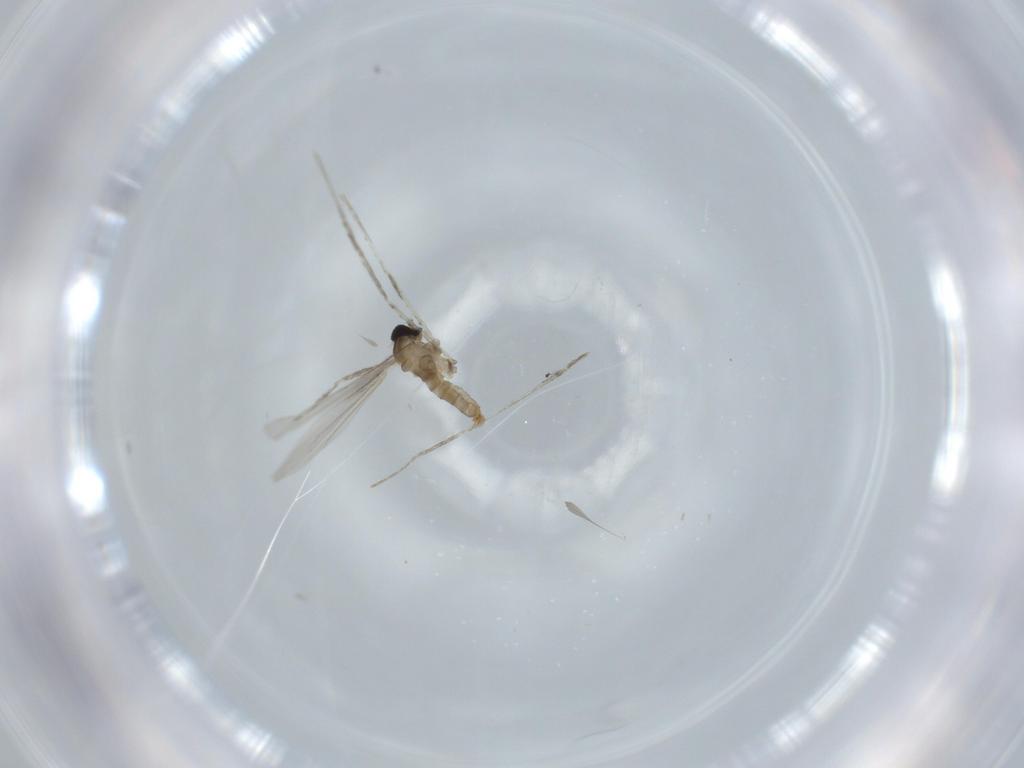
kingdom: Animalia
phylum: Arthropoda
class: Insecta
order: Diptera
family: Cecidomyiidae
